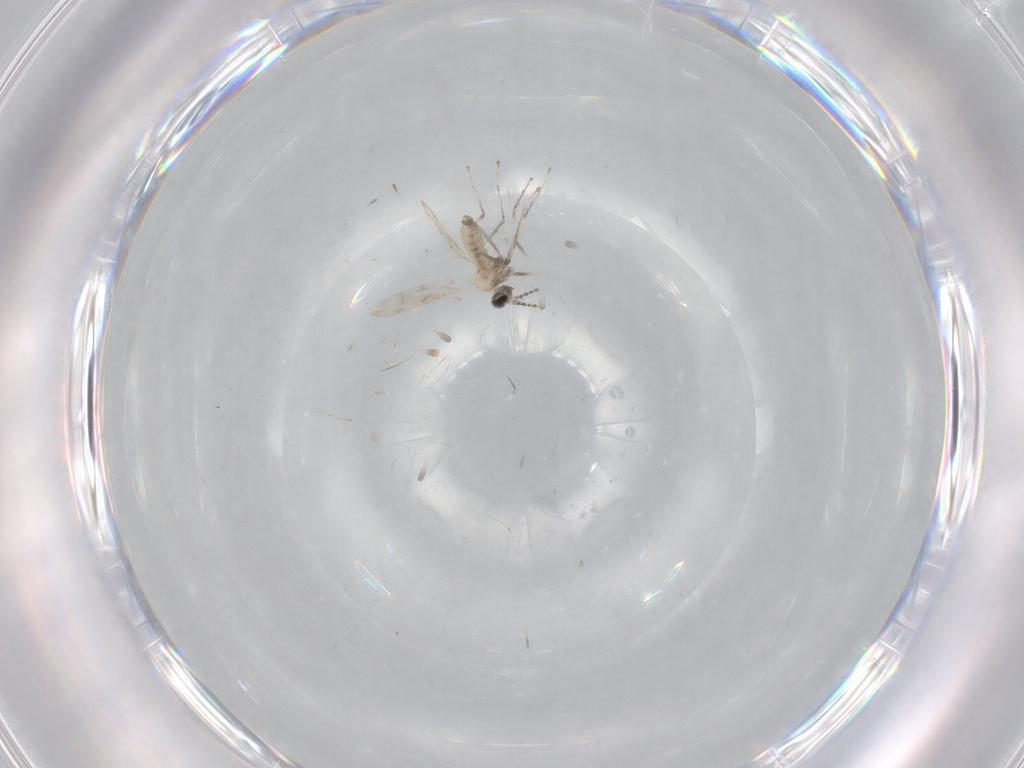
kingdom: Animalia
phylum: Arthropoda
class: Insecta
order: Diptera
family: Cecidomyiidae
